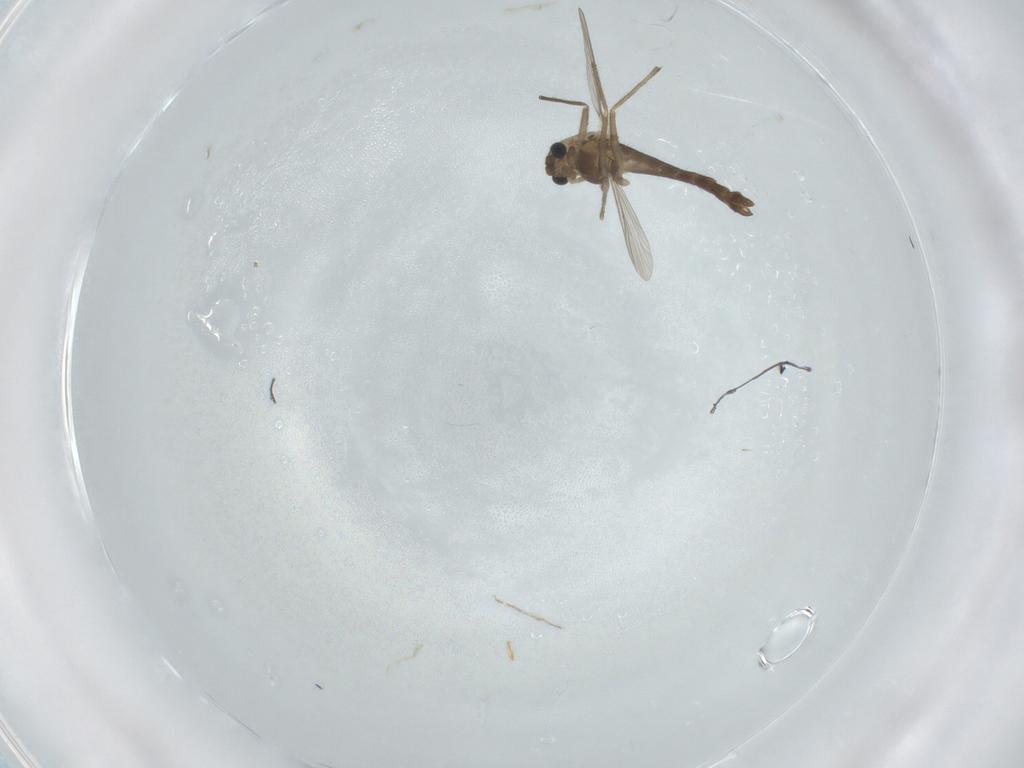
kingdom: Animalia
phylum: Arthropoda
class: Insecta
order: Diptera
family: Chironomidae
